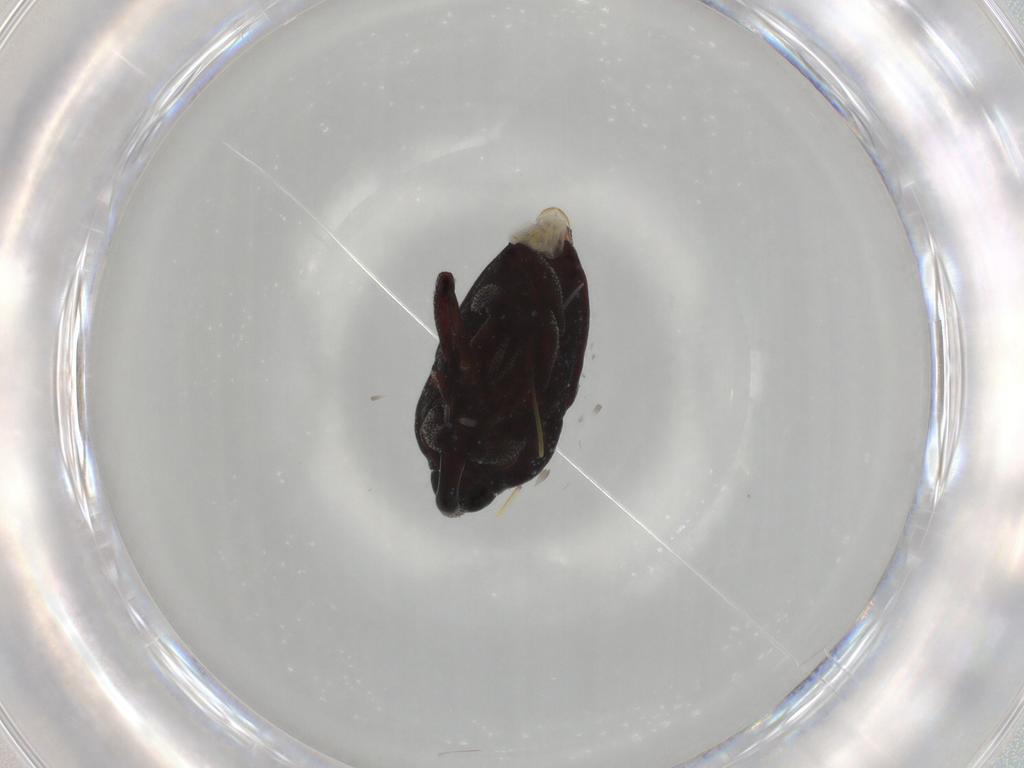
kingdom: Animalia
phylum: Arthropoda
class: Insecta
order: Coleoptera
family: Curculionidae
